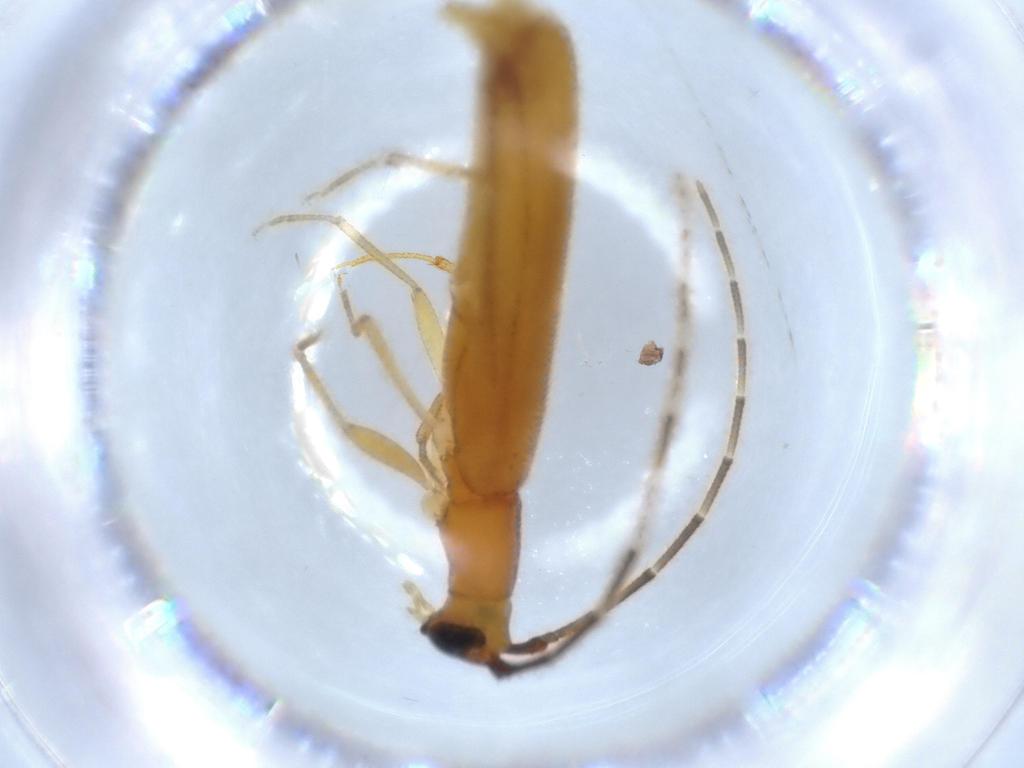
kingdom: Animalia
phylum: Arthropoda
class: Insecta
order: Coleoptera
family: Cerambycidae
